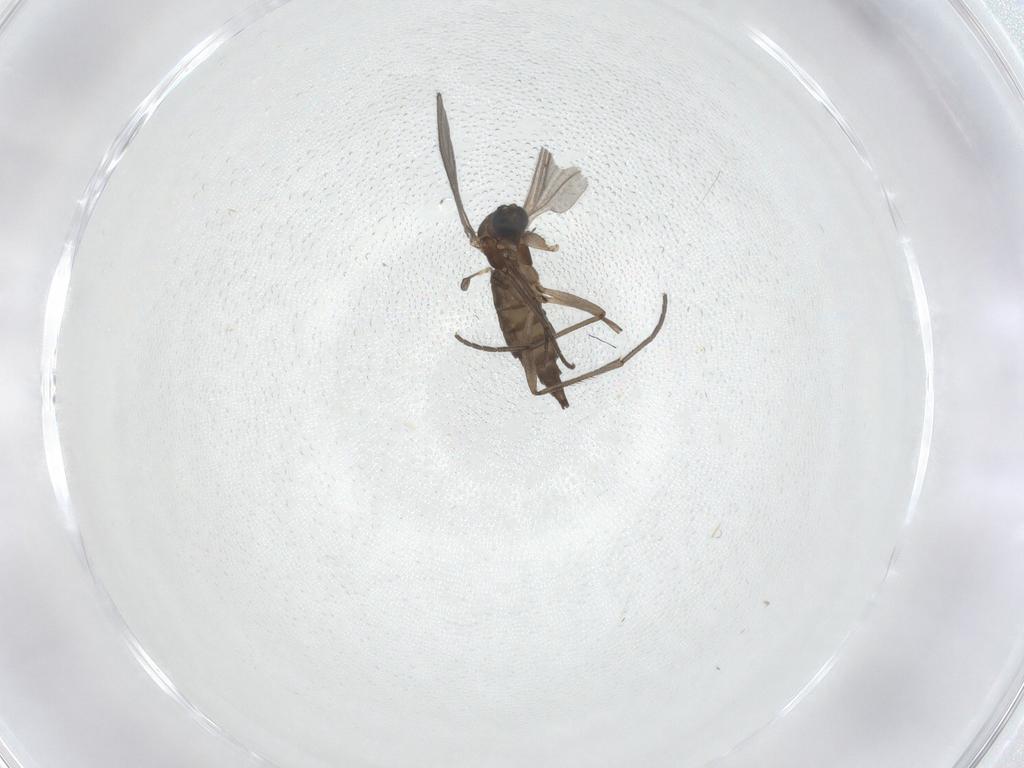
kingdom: Animalia
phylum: Arthropoda
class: Insecta
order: Diptera
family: Sciaridae
